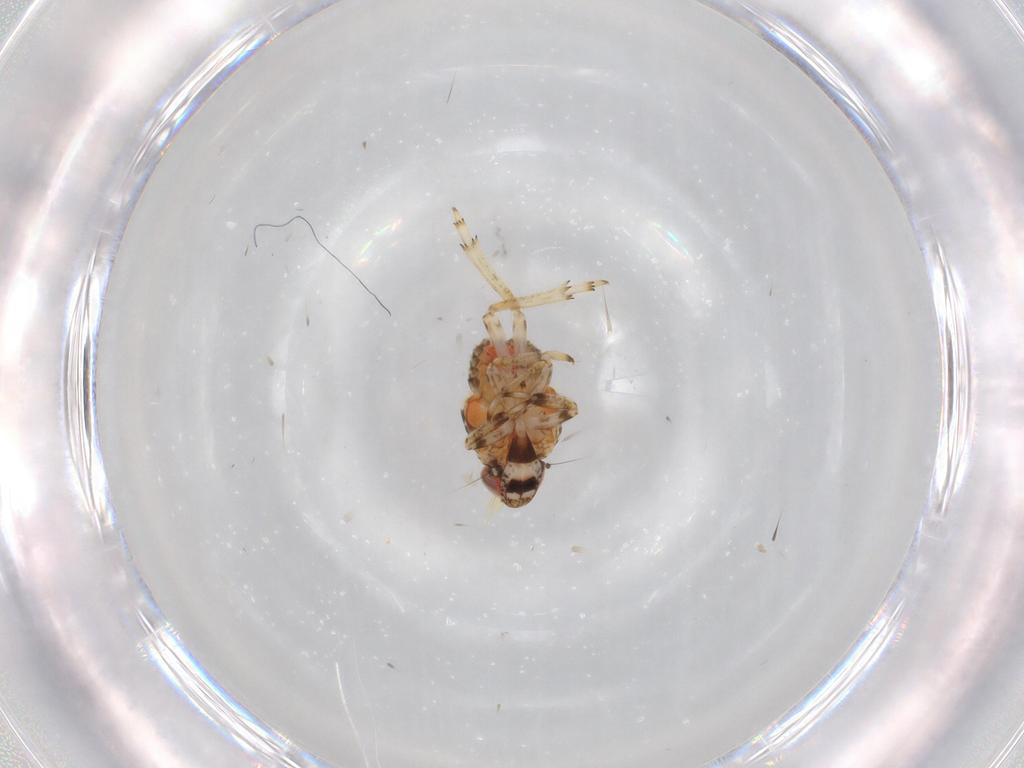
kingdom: Animalia
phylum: Arthropoda
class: Insecta
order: Hemiptera
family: Issidae
